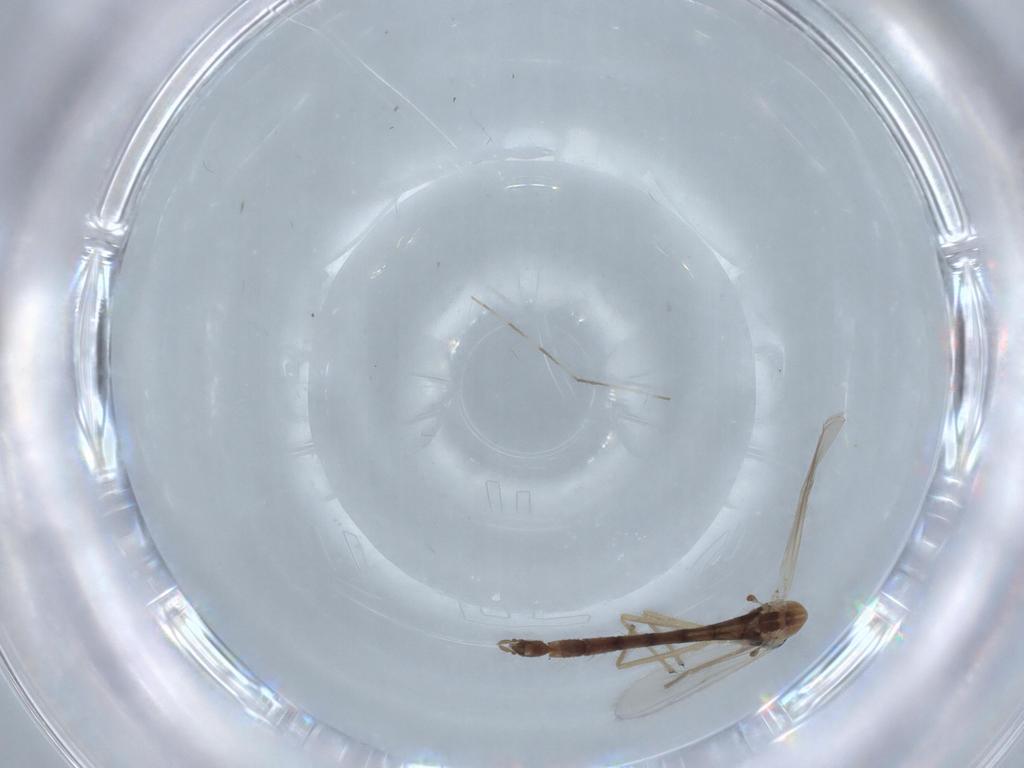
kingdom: Animalia
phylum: Arthropoda
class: Insecta
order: Diptera
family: Chironomidae
